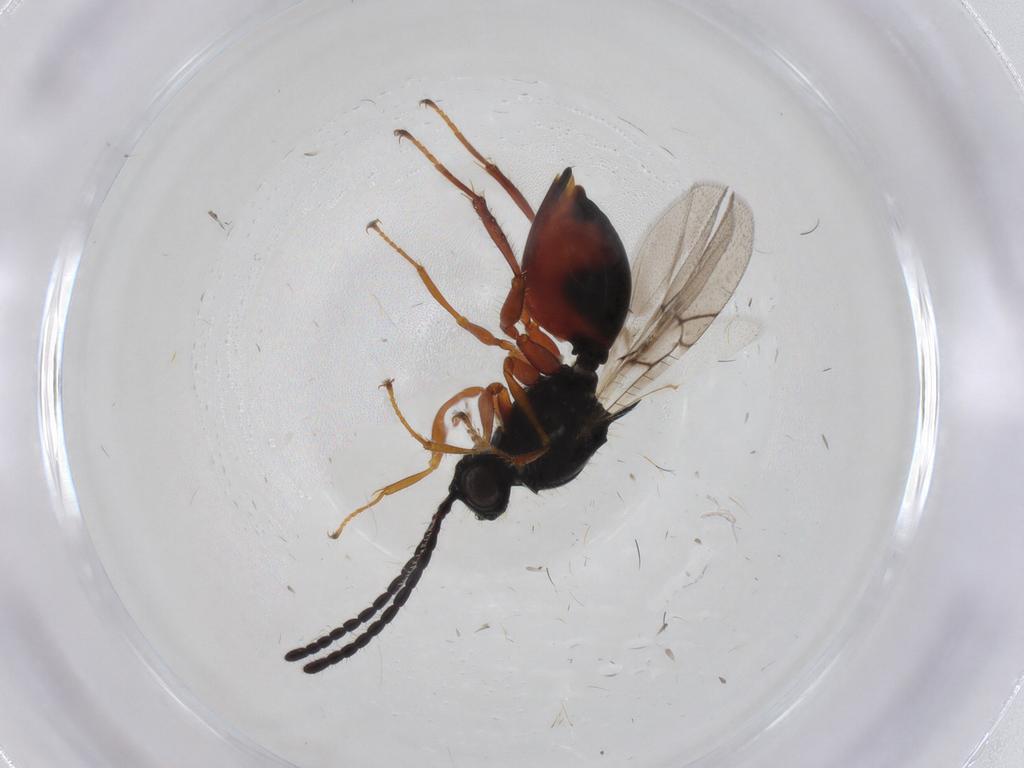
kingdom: Animalia
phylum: Arthropoda
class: Insecta
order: Hymenoptera
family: Figitidae
